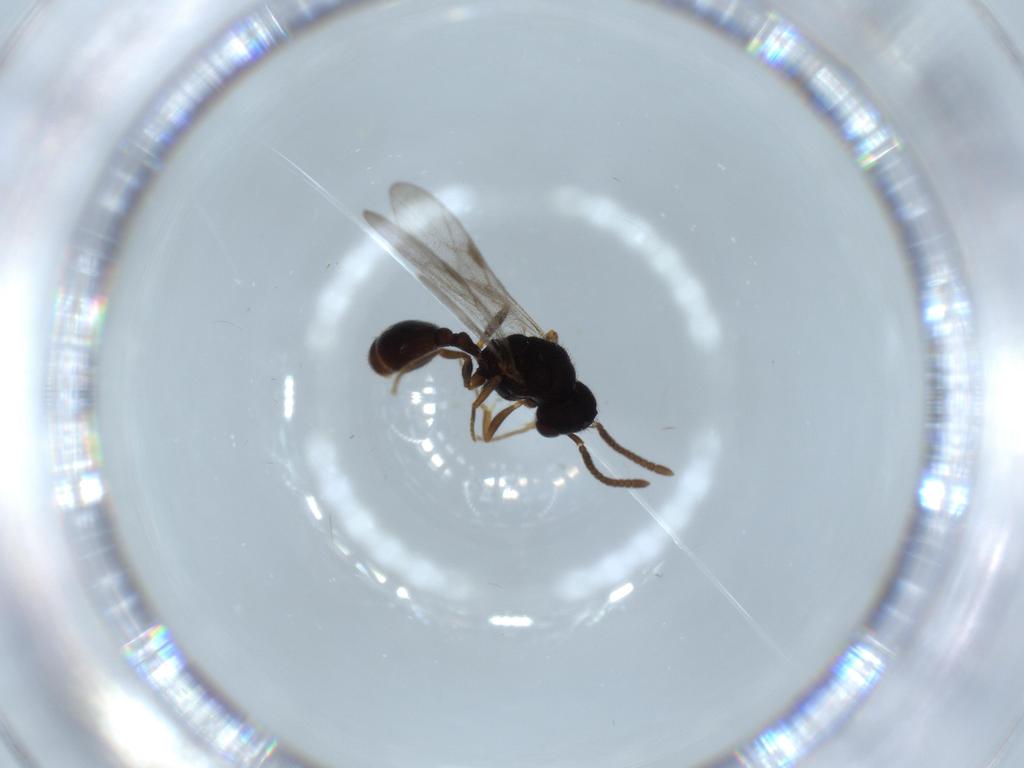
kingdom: Animalia
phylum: Arthropoda
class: Insecta
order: Hymenoptera
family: Formicidae
